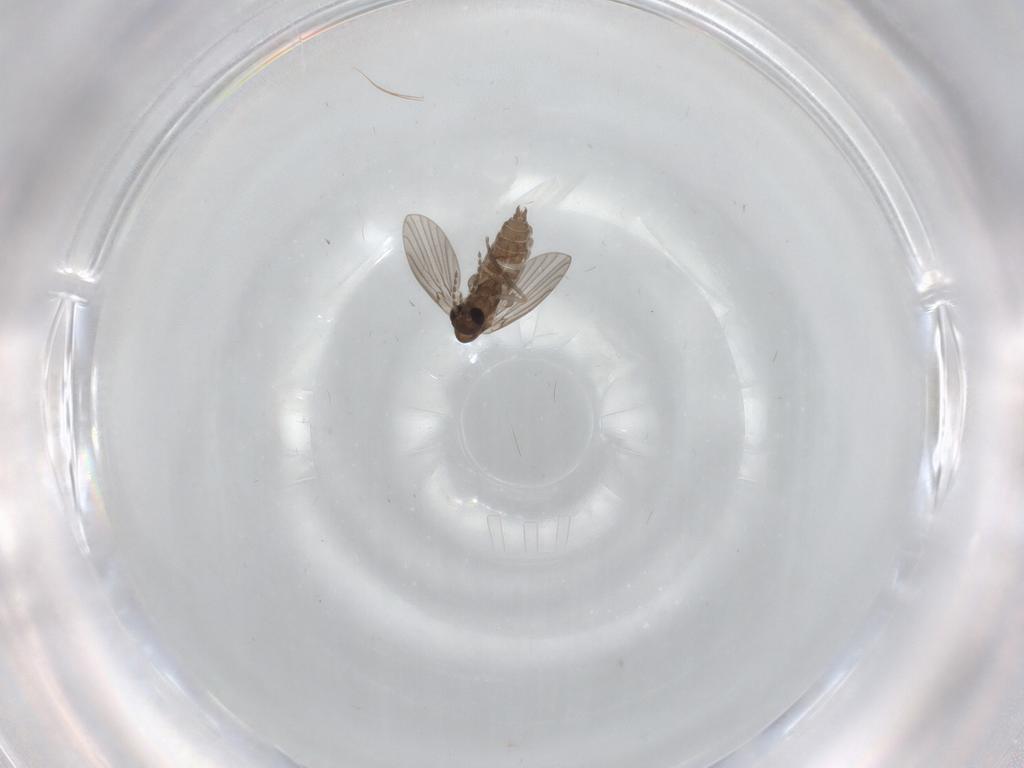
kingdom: Animalia
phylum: Arthropoda
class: Insecta
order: Diptera
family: Chironomidae
